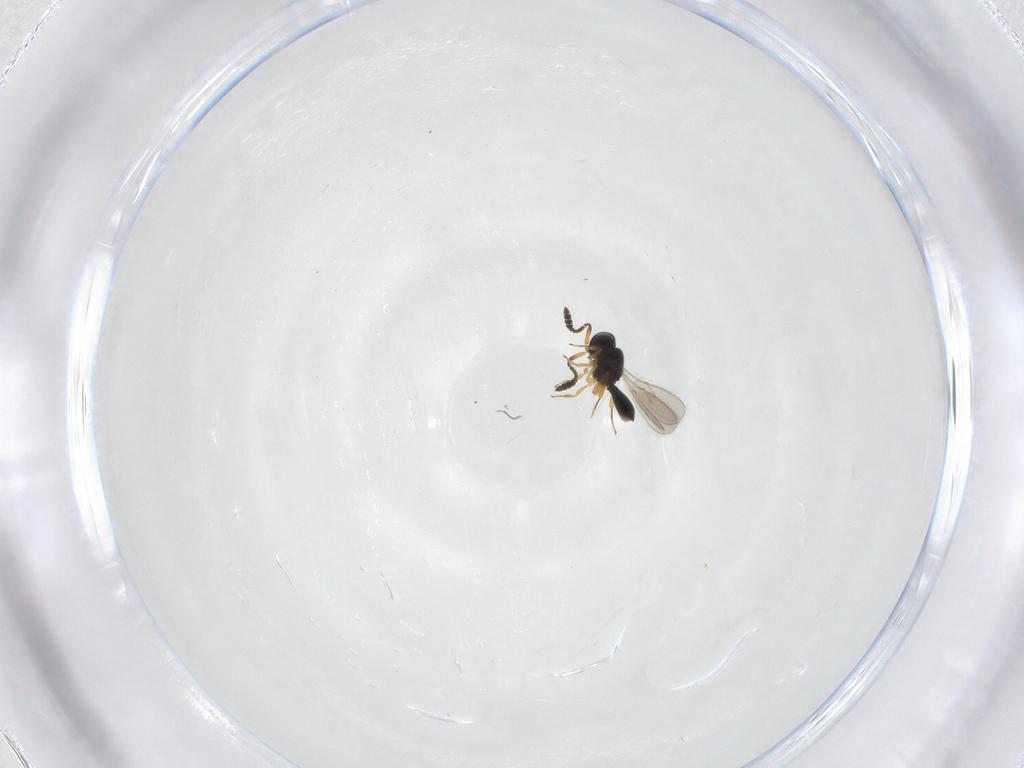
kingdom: Animalia
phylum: Arthropoda
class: Insecta
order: Hymenoptera
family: Scelionidae
